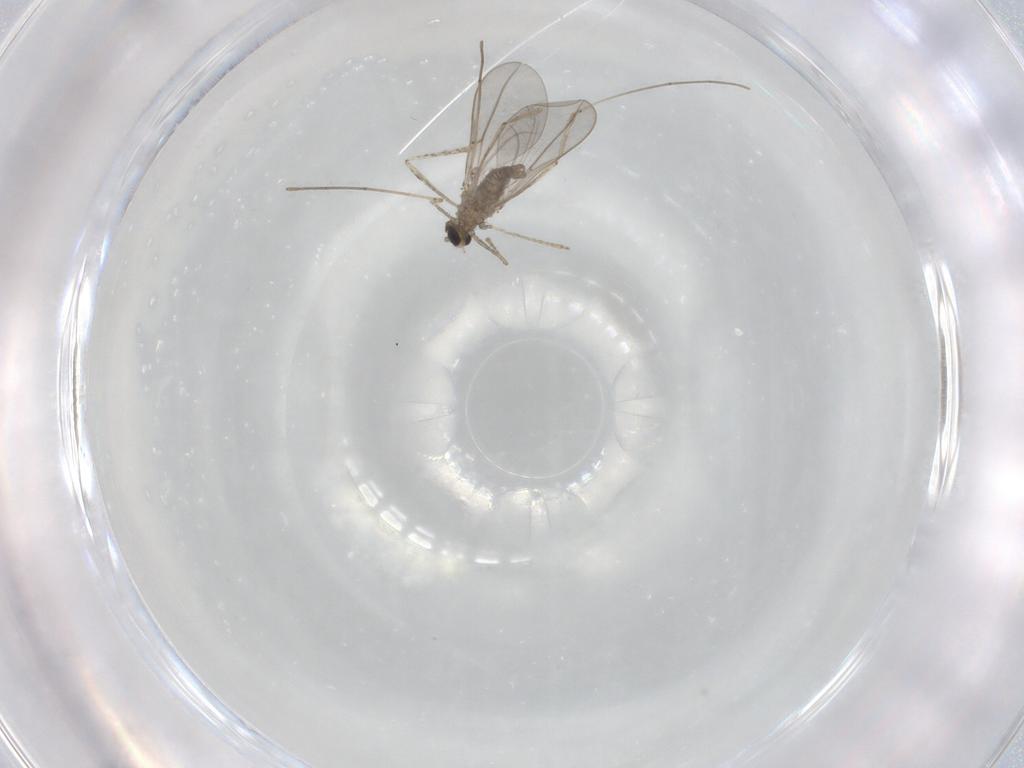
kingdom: Animalia
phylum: Arthropoda
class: Insecta
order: Diptera
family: Cecidomyiidae
